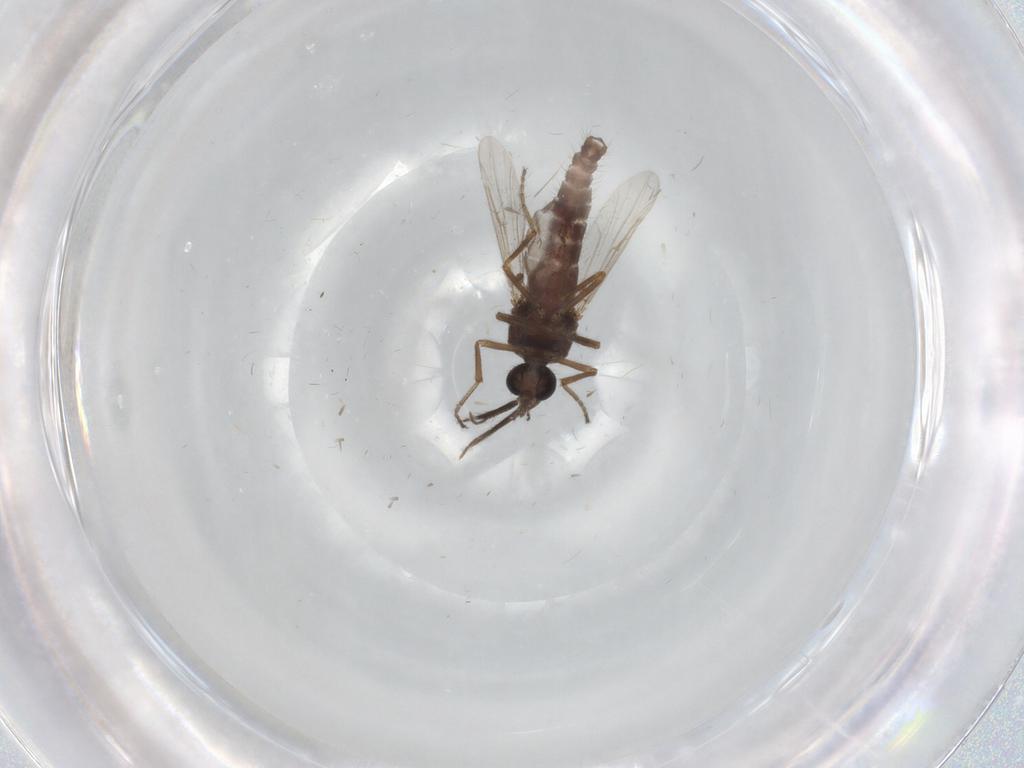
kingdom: Animalia
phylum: Arthropoda
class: Insecta
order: Diptera
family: Ceratopogonidae
